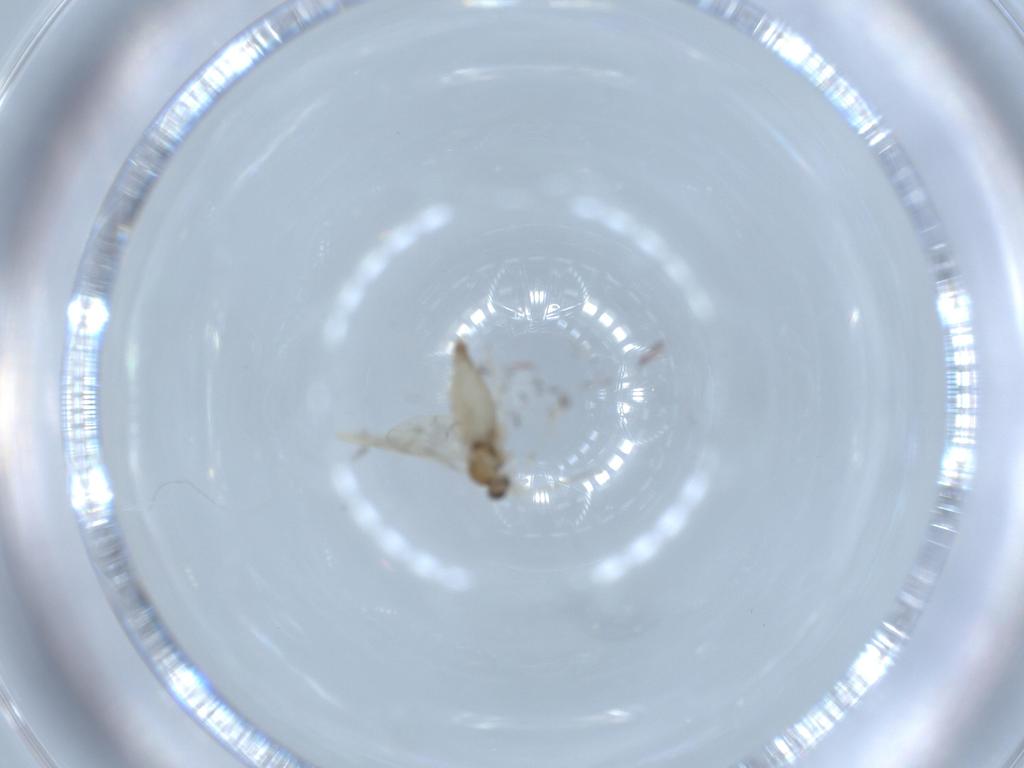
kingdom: Animalia
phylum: Arthropoda
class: Insecta
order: Diptera
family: Cecidomyiidae
